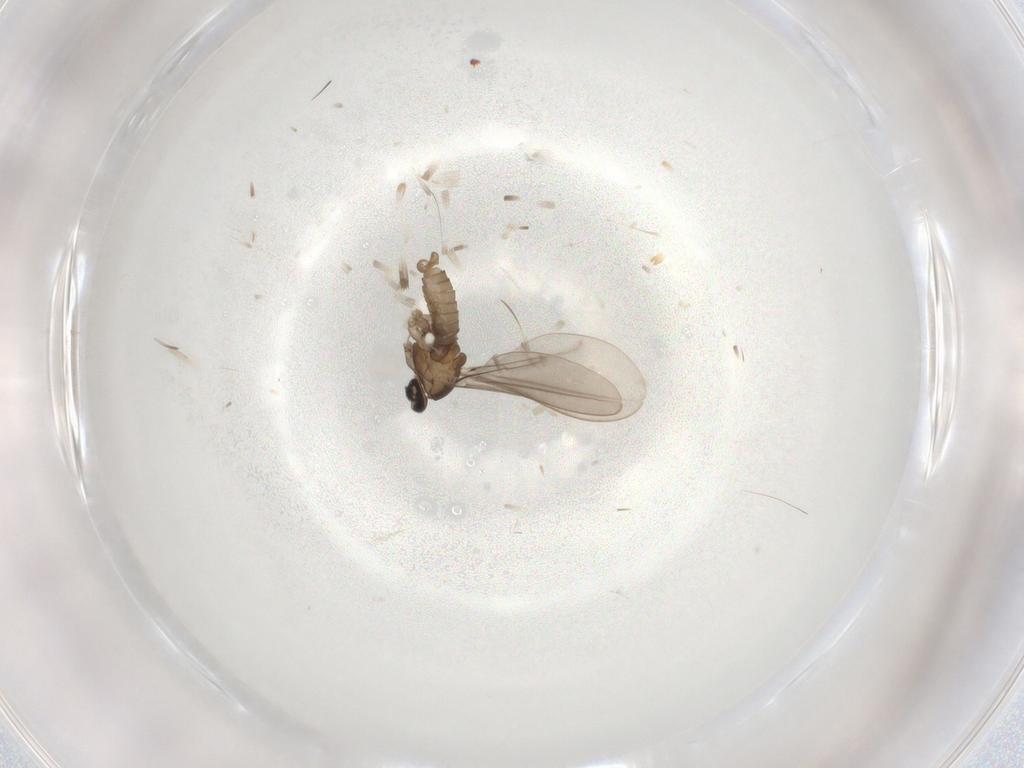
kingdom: Animalia
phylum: Arthropoda
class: Insecta
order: Diptera
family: Cecidomyiidae
